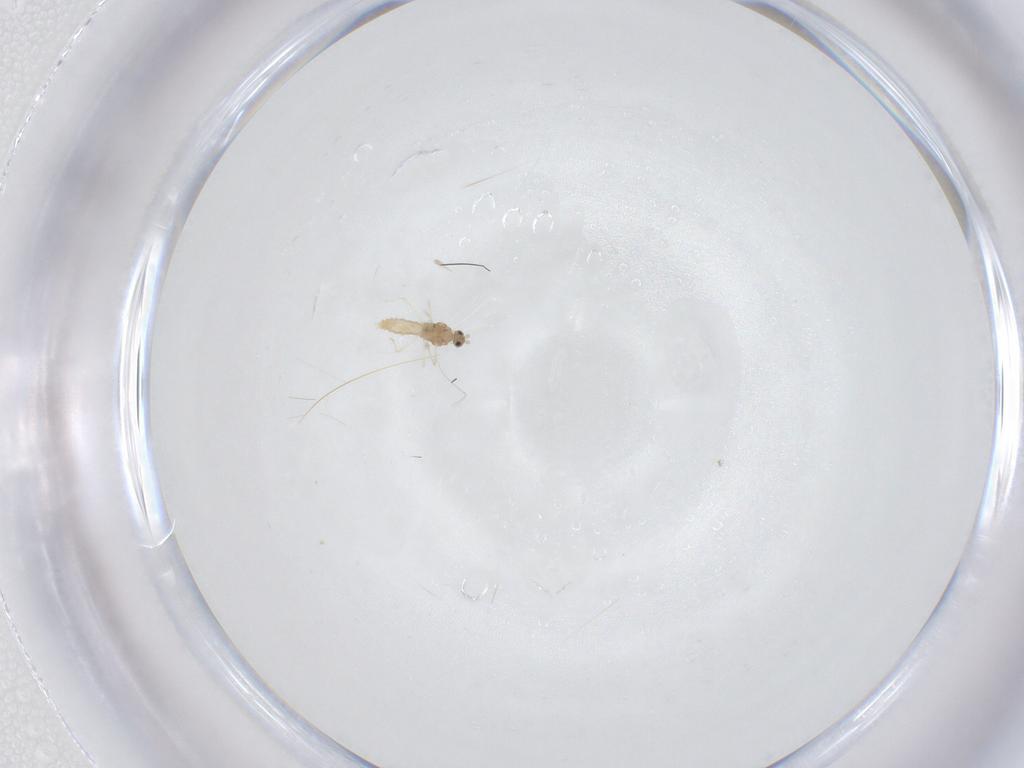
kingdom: Animalia
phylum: Arthropoda
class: Insecta
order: Diptera
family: Cecidomyiidae
